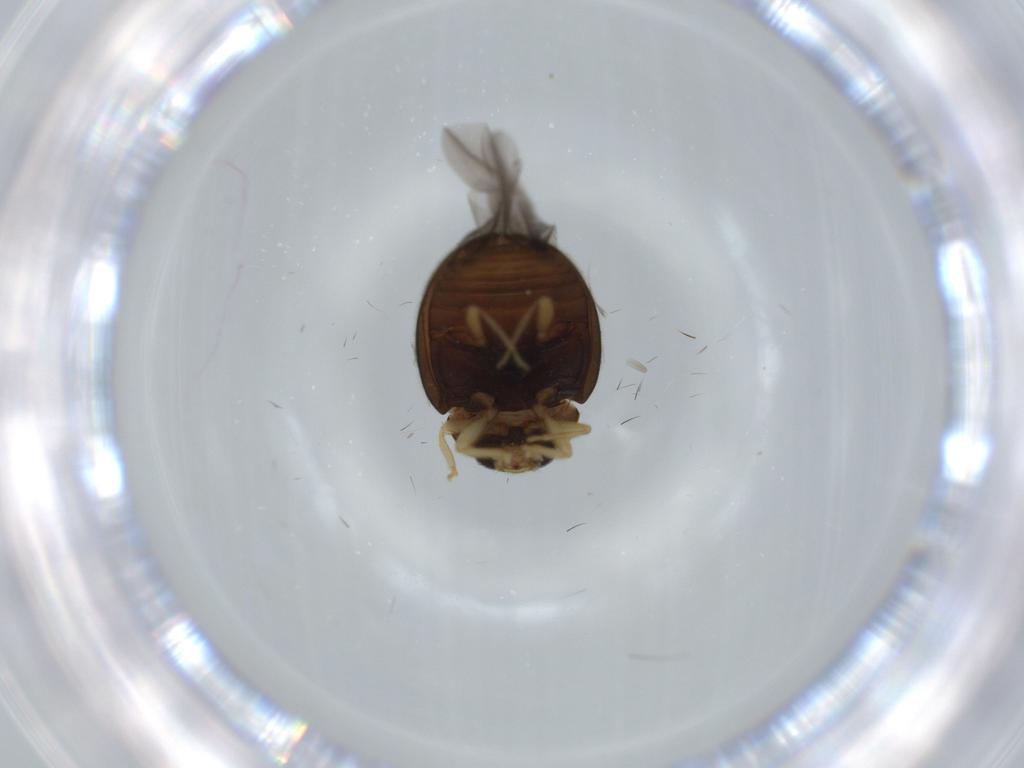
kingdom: Animalia
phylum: Arthropoda
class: Insecta
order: Coleoptera
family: Coccinellidae
